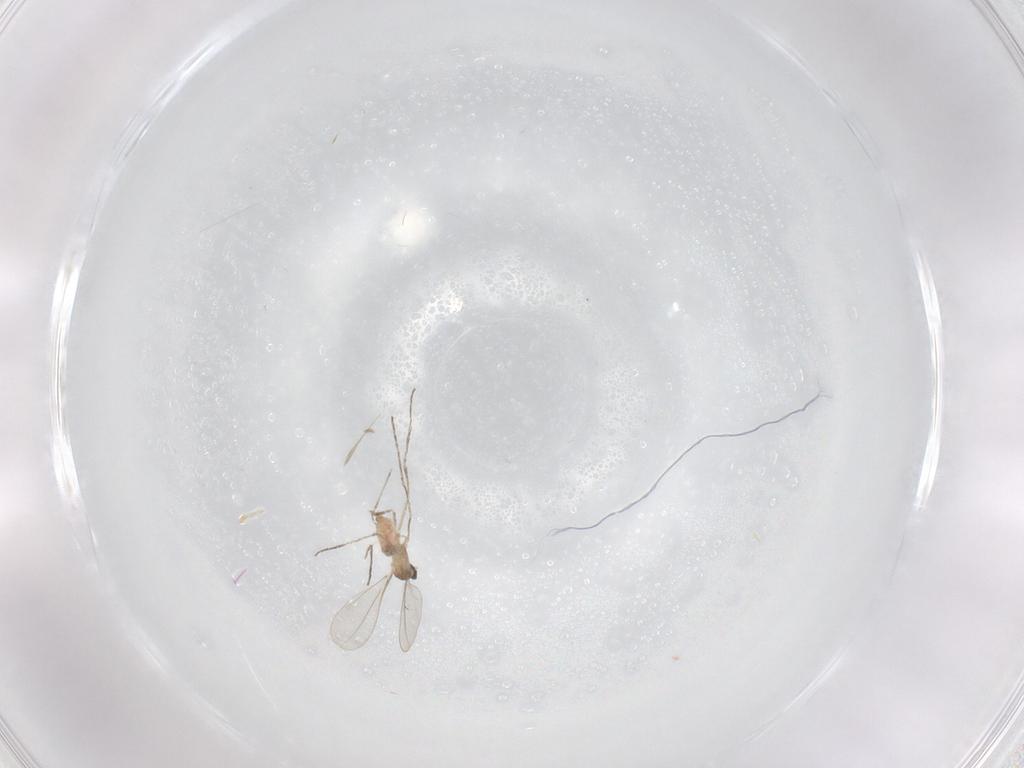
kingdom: Animalia
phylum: Arthropoda
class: Insecta
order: Diptera
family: Cecidomyiidae
